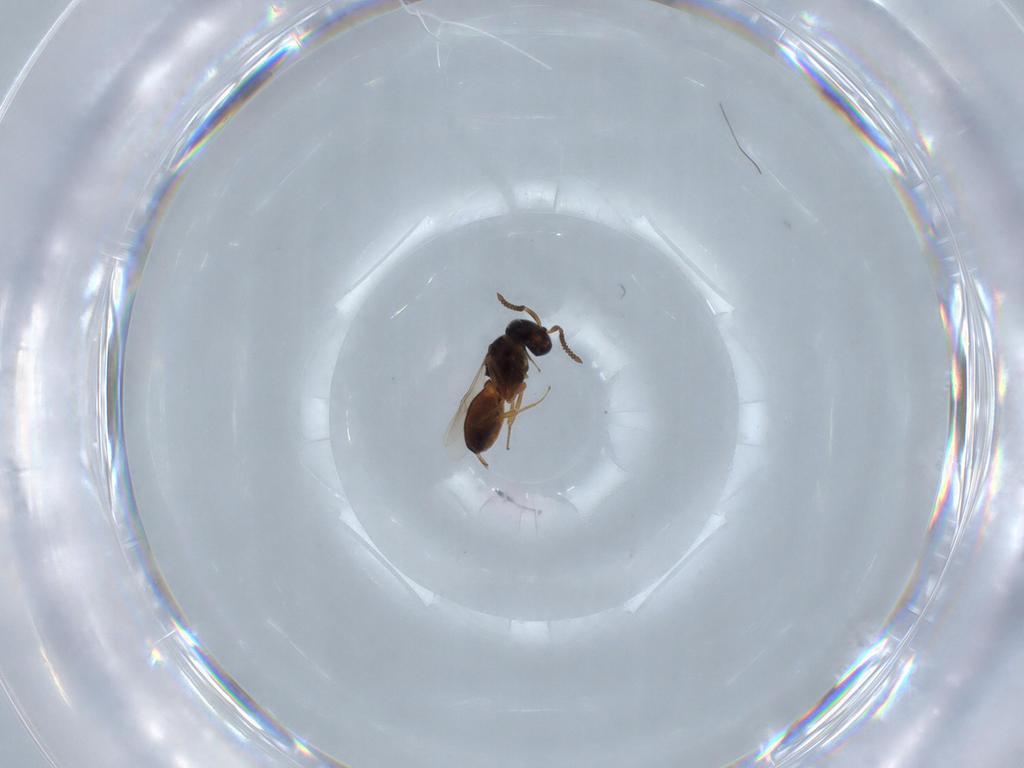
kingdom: Animalia
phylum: Arthropoda
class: Insecta
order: Hymenoptera
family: Scelionidae
